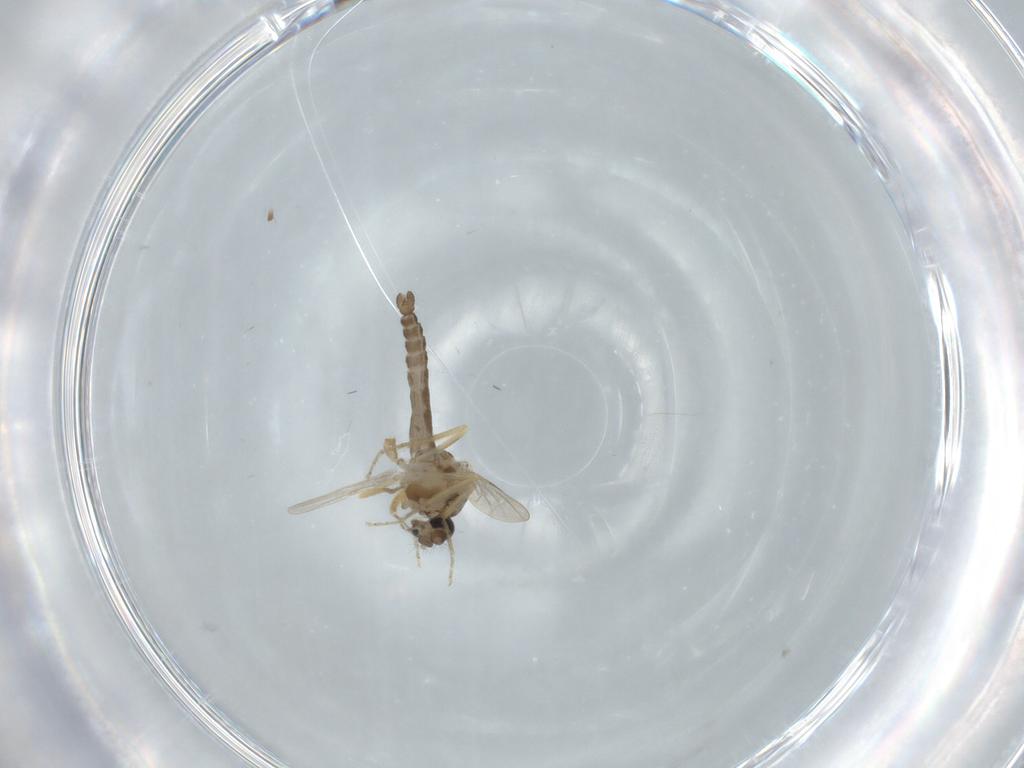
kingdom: Animalia
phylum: Arthropoda
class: Insecta
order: Diptera
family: Ceratopogonidae
